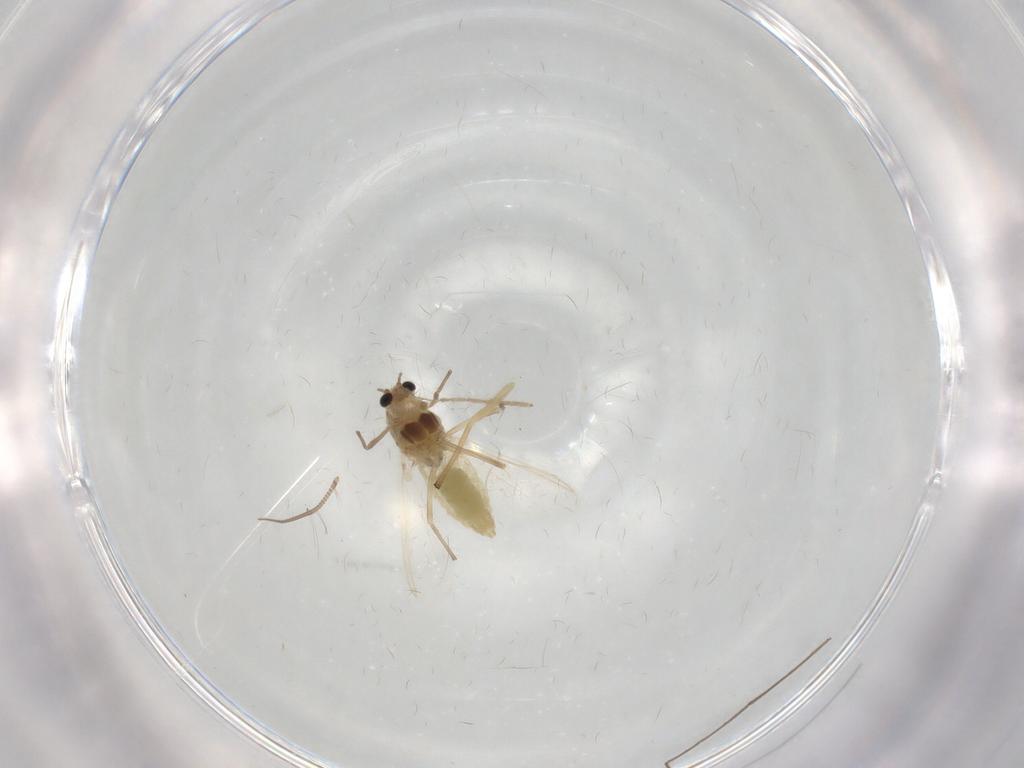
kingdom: Animalia
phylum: Arthropoda
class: Insecta
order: Diptera
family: Chironomidae
